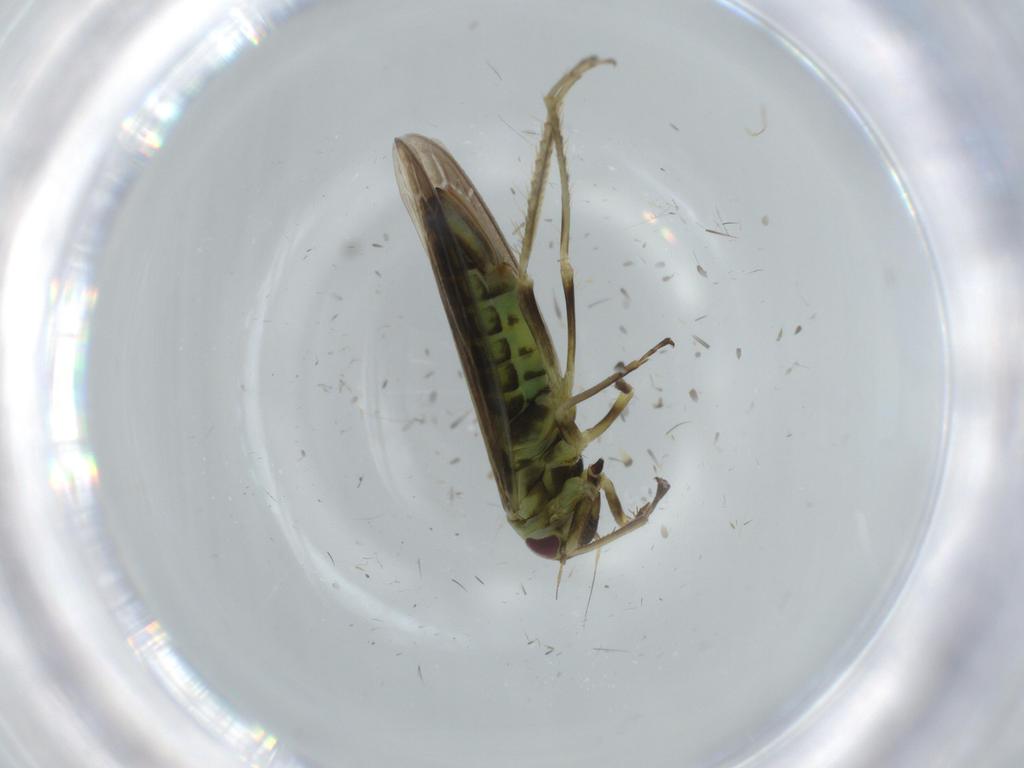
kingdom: Animalia
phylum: Arthropoda
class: Insecta
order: Hemiptera
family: Cicadellidae
